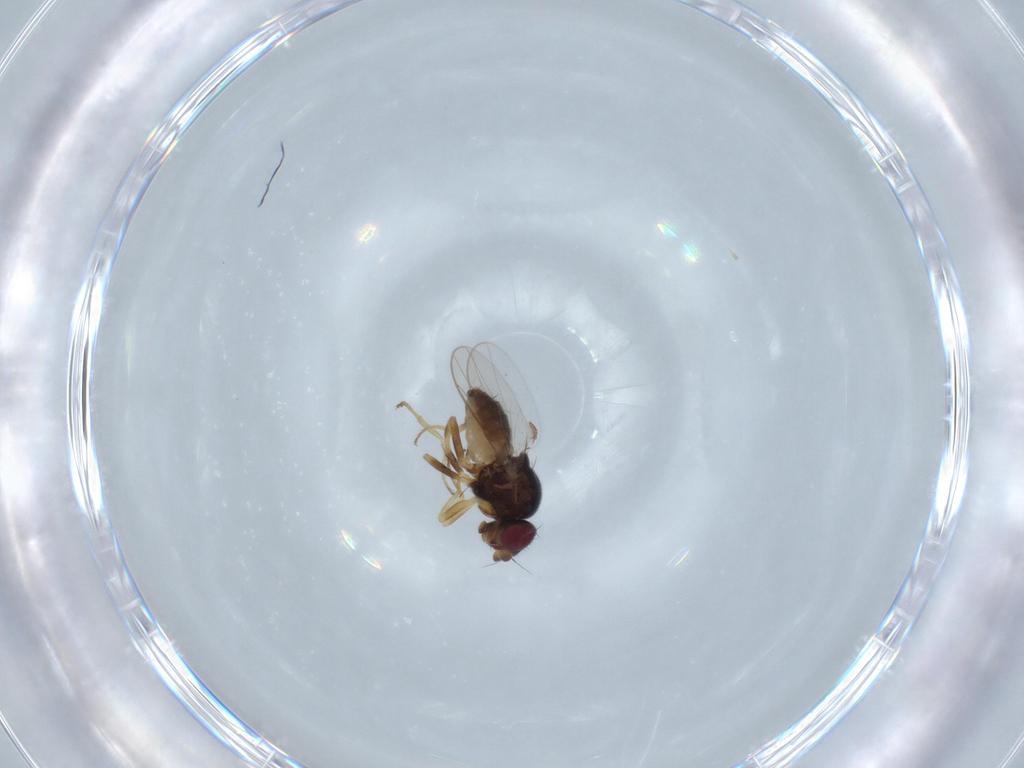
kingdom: Animalia
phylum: Arthropoda
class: Insecta
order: Diptera
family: Chloropidae
